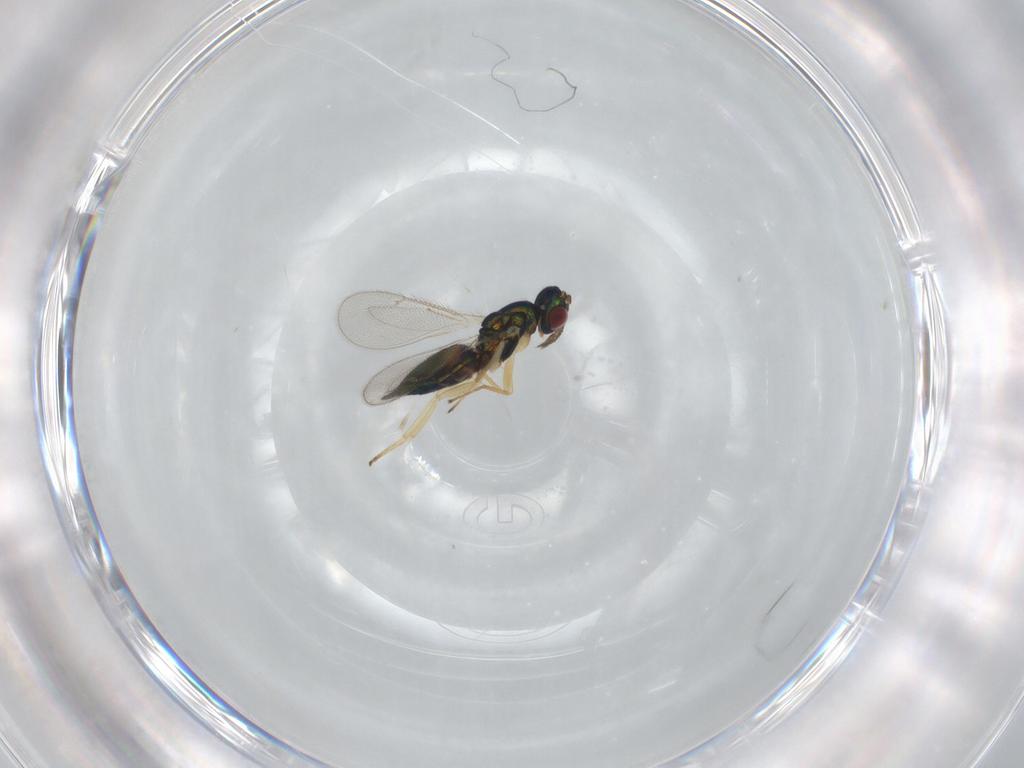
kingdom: Animalia
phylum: Arthropoda
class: Insecta
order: Hymenoptera
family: Eulophidae
